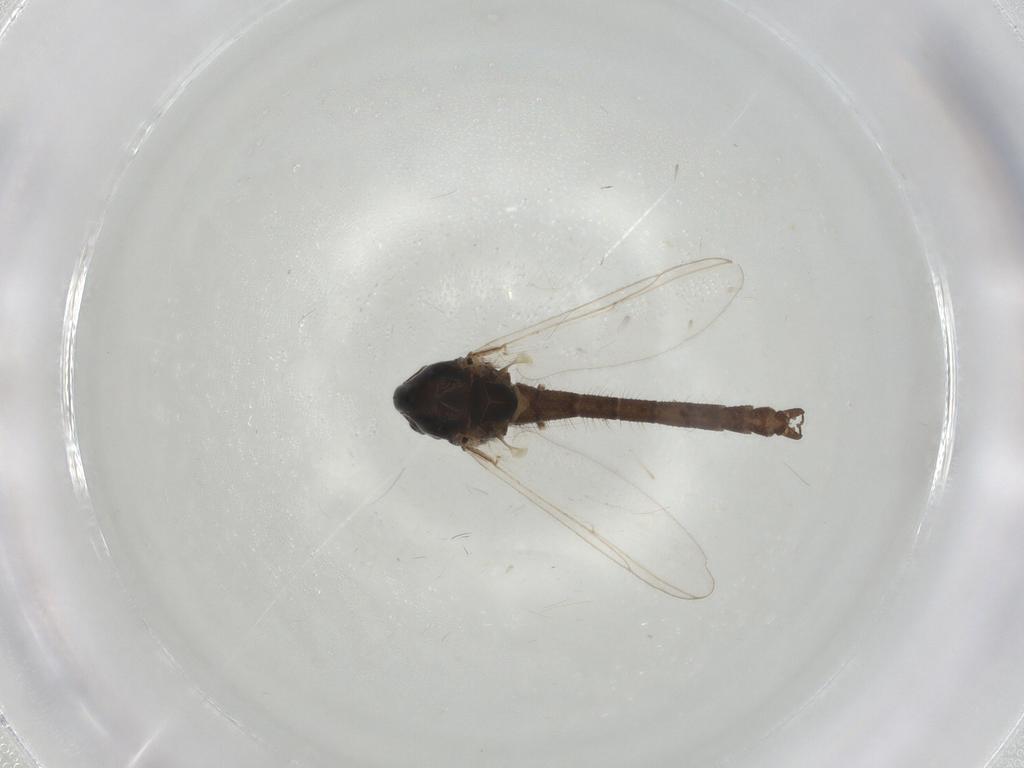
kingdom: Animalia
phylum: Arthropoda
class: Insecta
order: Diptera
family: Chironomidae
